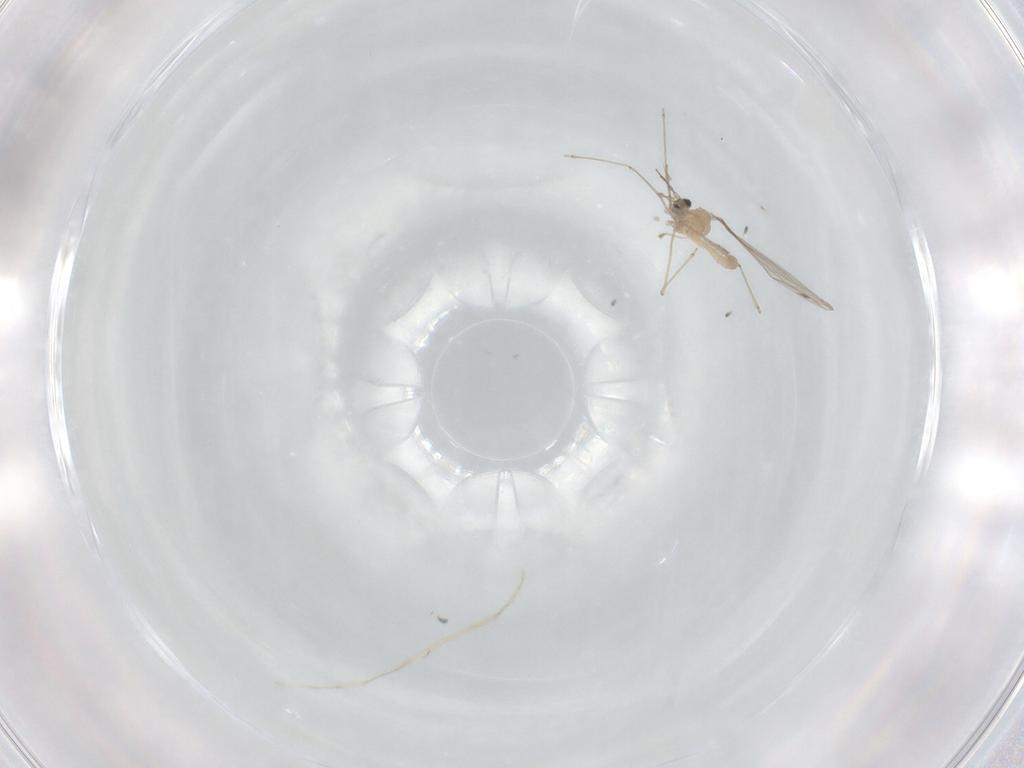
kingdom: Animalia
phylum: Arthropoda
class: Insecta
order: Diptera
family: Cecidomyiidae
